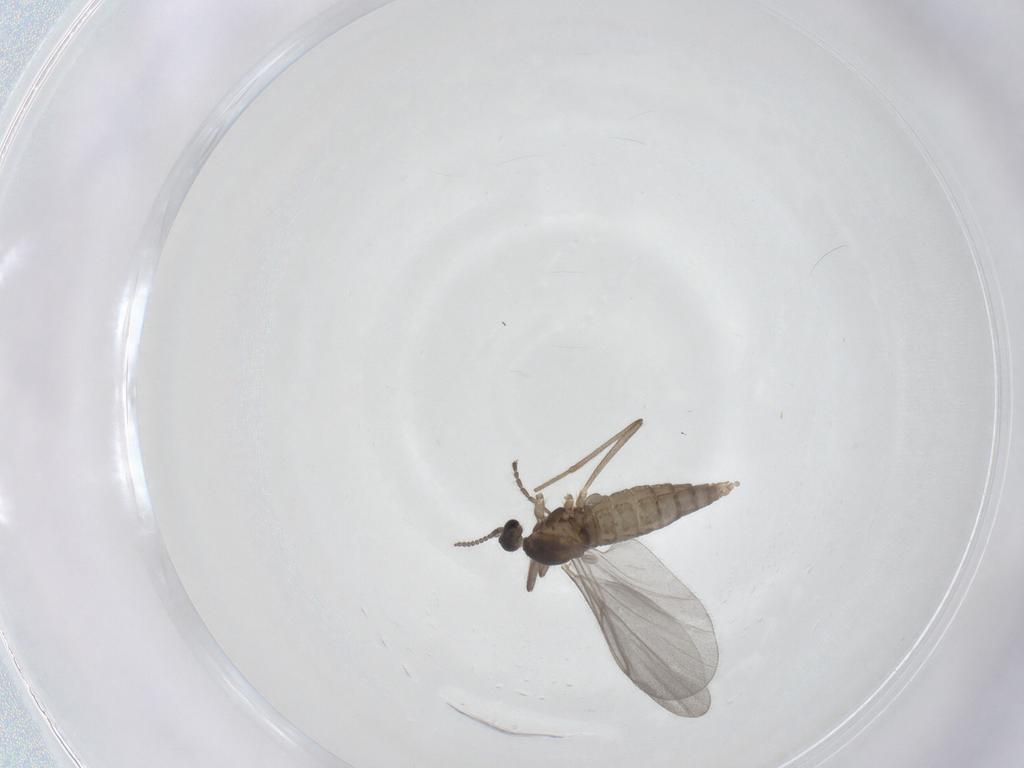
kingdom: Animalia
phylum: Arthropoda
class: Insecta
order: Diptera
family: Cecidomyiidae
